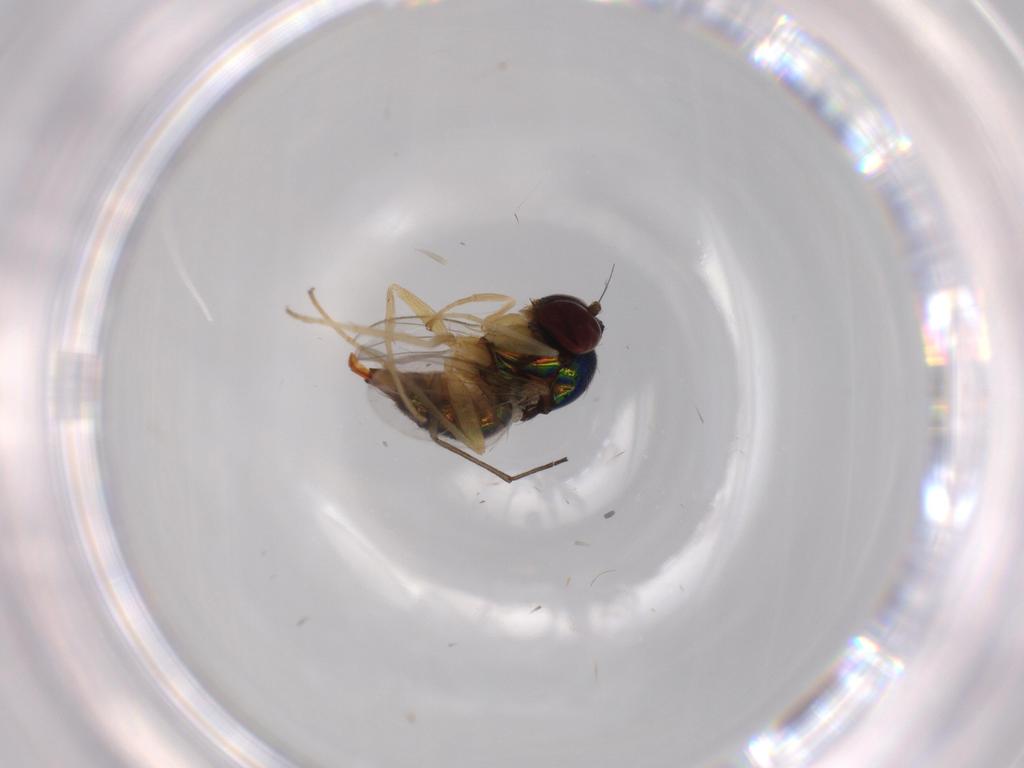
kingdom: Animalia
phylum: Arthropoda
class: Insecta
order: Diptera
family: Dolichopodidae
